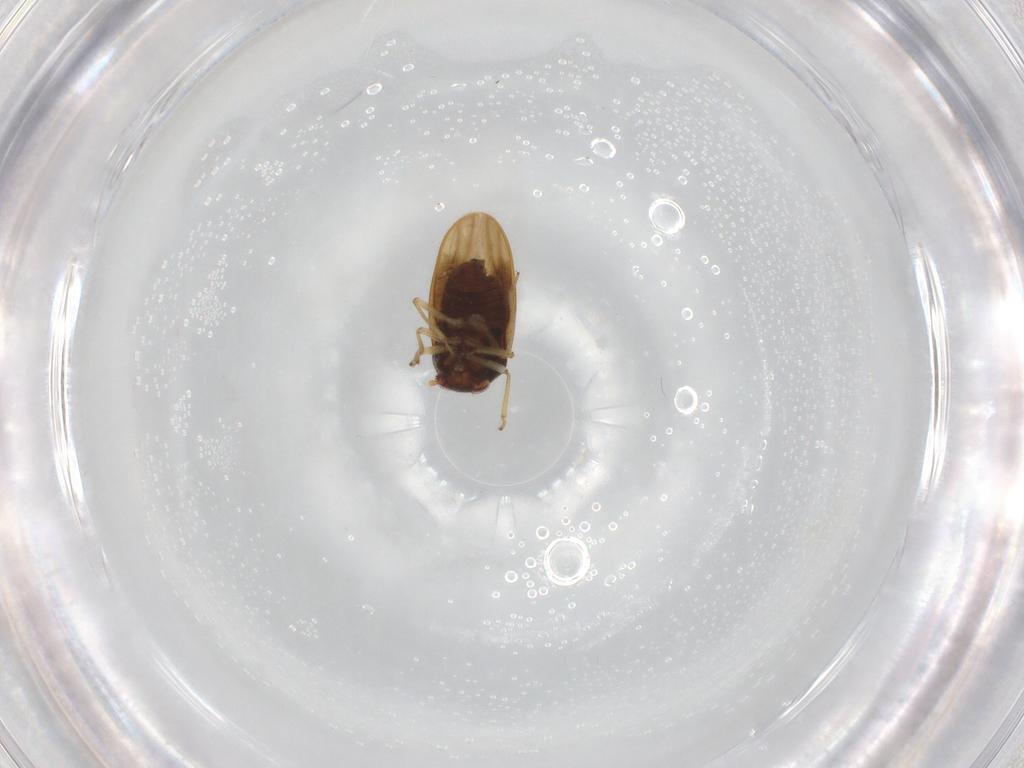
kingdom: Animalia
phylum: Arthropoda
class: Insecta
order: Hemiptera
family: Schizopteridae
